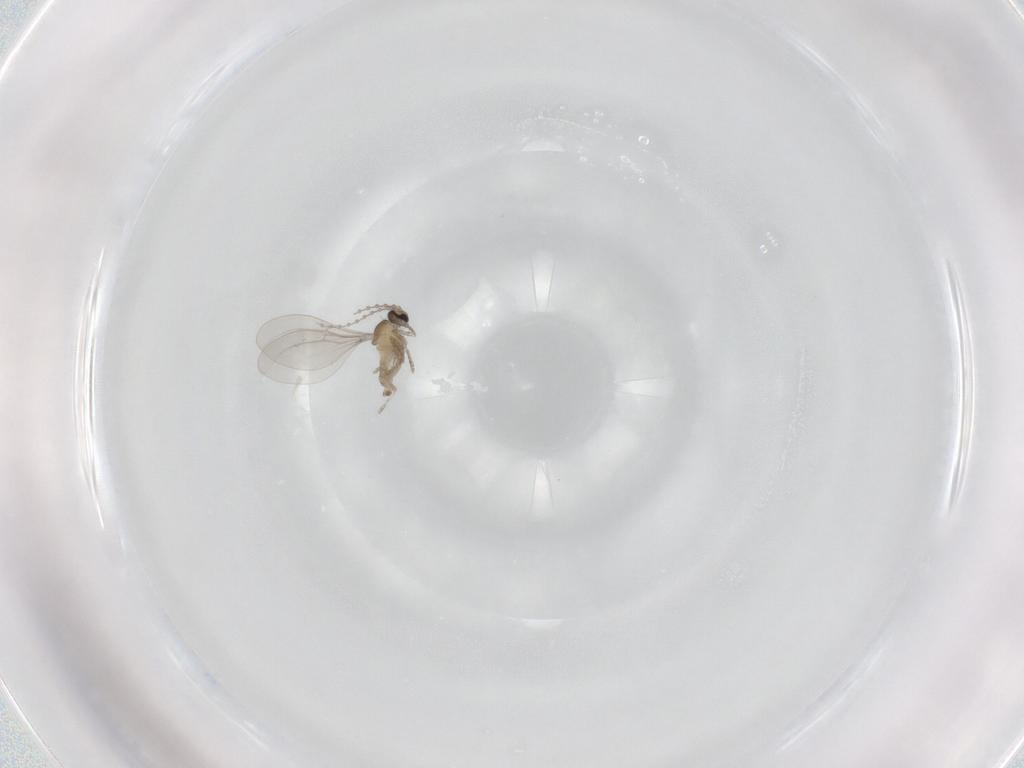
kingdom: Animalia
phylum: Arthropoda
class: Insecta
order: Diptera
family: Cecidomyiidae
